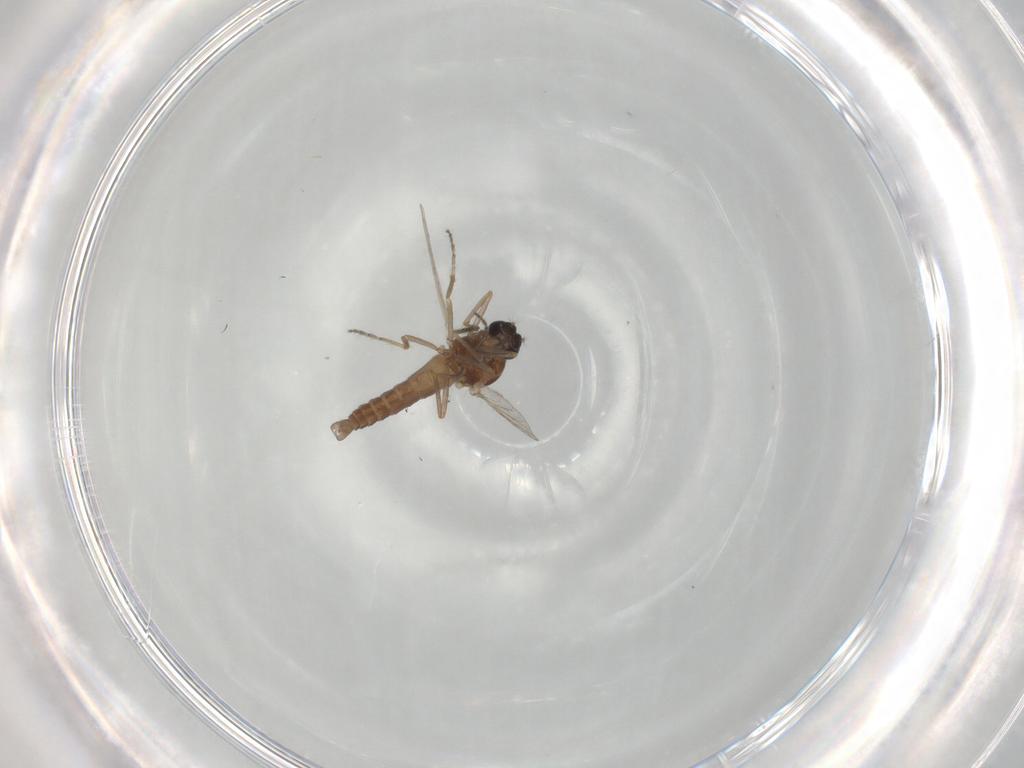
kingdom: Animalia
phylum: Arthropoda
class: Insecta
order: Diptera
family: Ceratopogonidae
